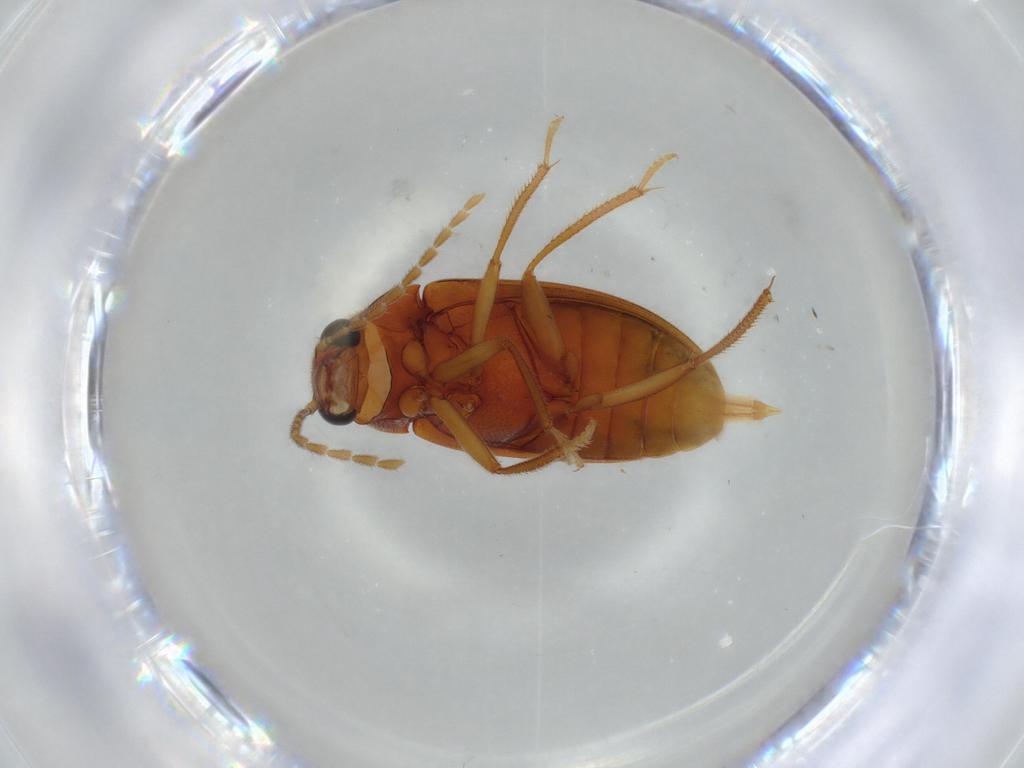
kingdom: Animalia
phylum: Arthropoda
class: Insecta
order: Coleoptera
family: Ptilodactylidae
